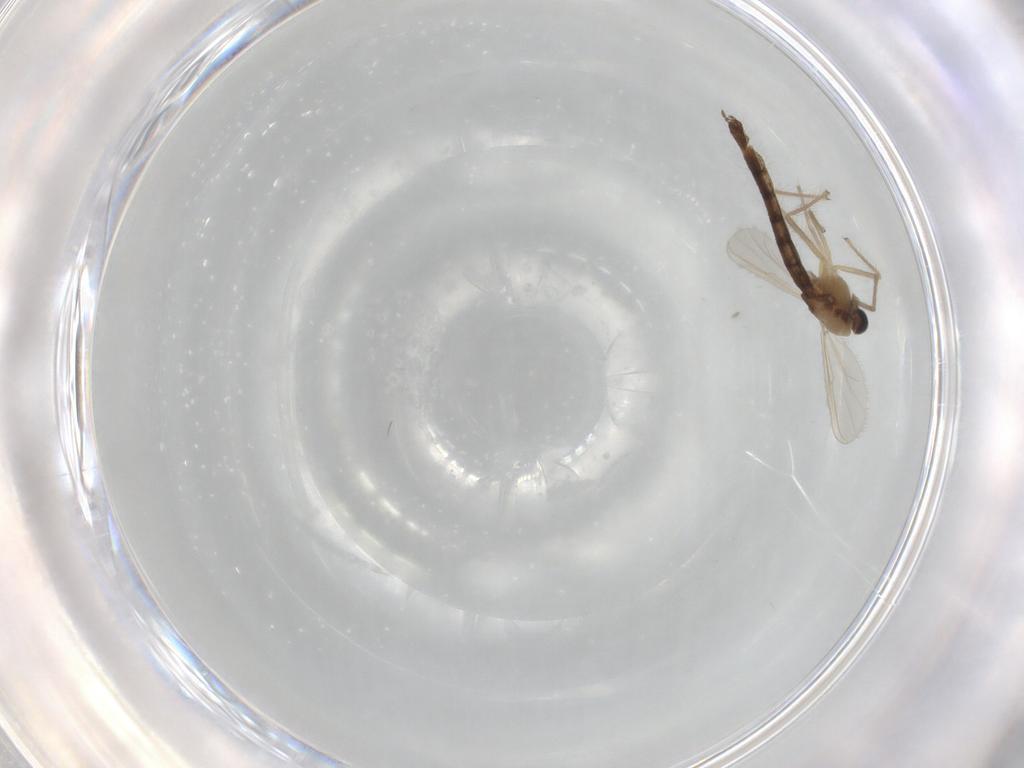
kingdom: Animalia
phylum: Arthropoda
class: Insecta
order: Diptera
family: Chironomidae
